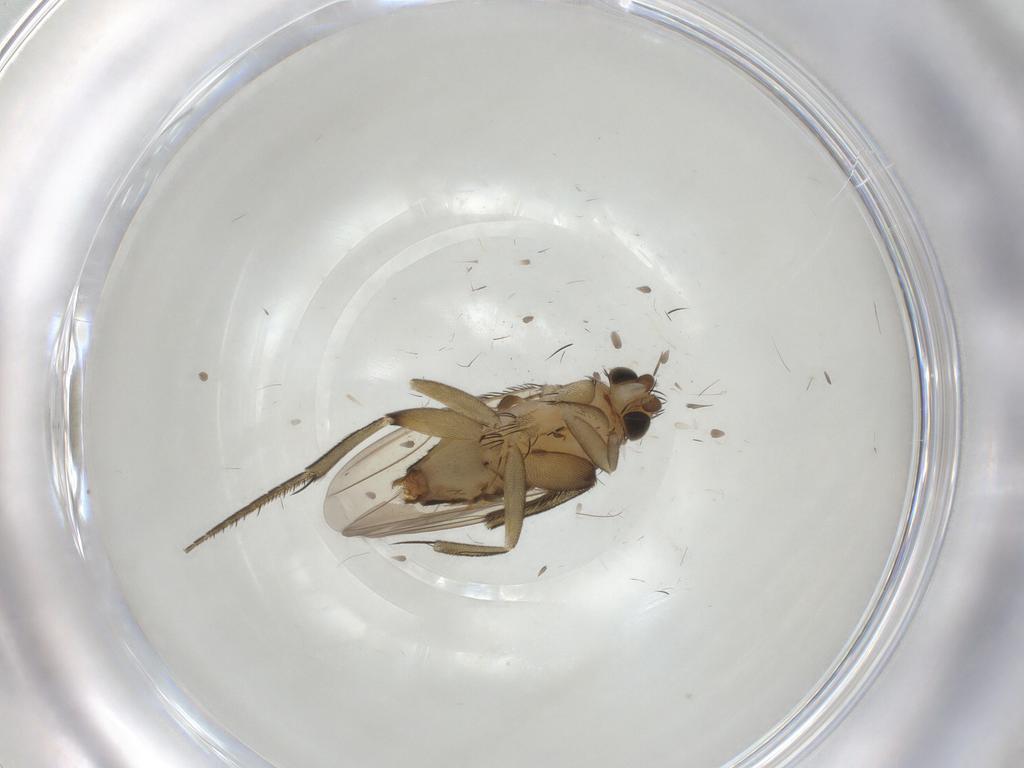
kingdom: Animalia
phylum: Arthropoda
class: Insecta
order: Diptera
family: Phoridae
